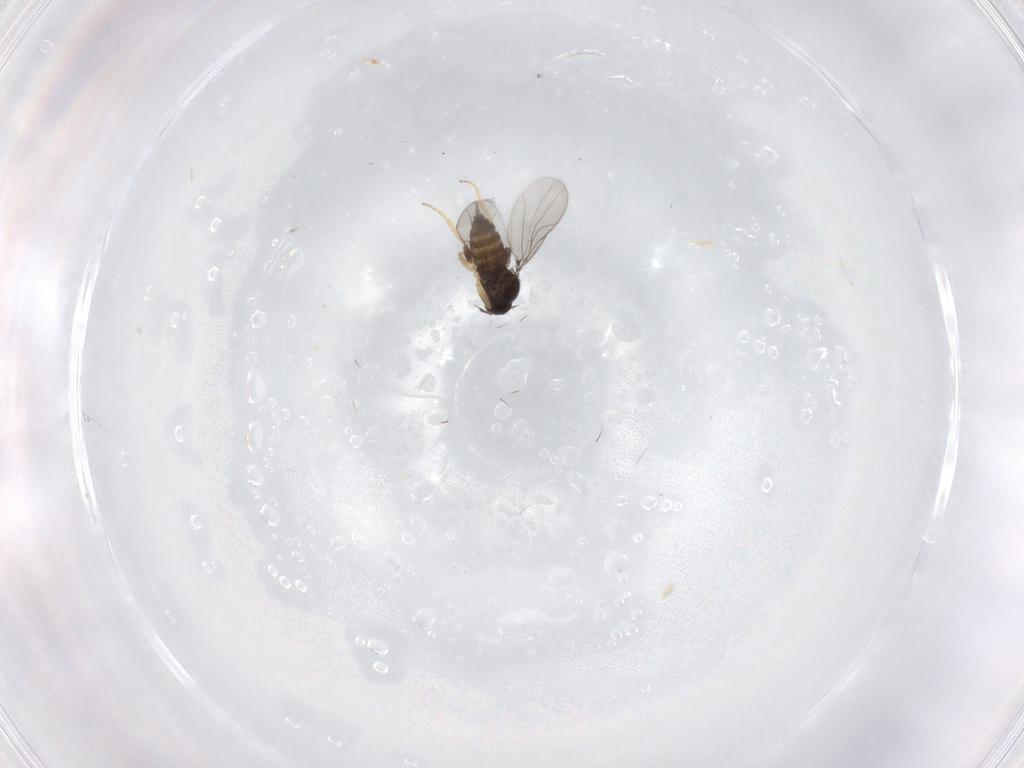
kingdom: Animalia
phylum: Arthropoda
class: Insecta
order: Diptera
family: Hybotidae
